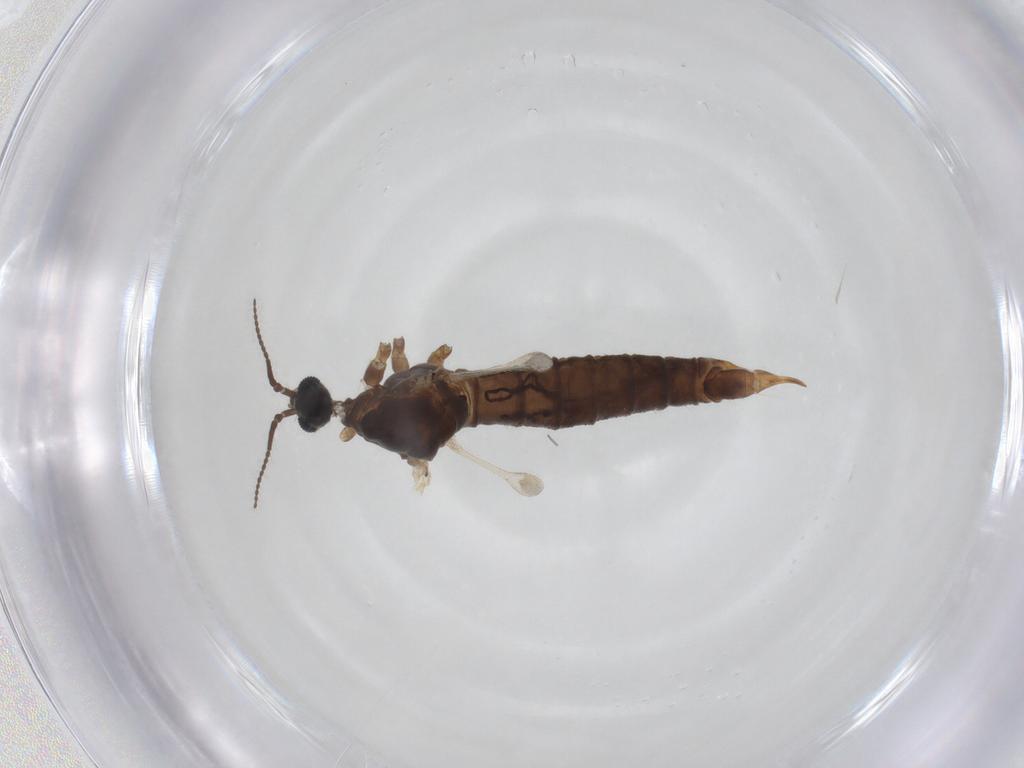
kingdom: Animalia
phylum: Arthropoda
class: Insecta
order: Diptera
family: Limoniidae
